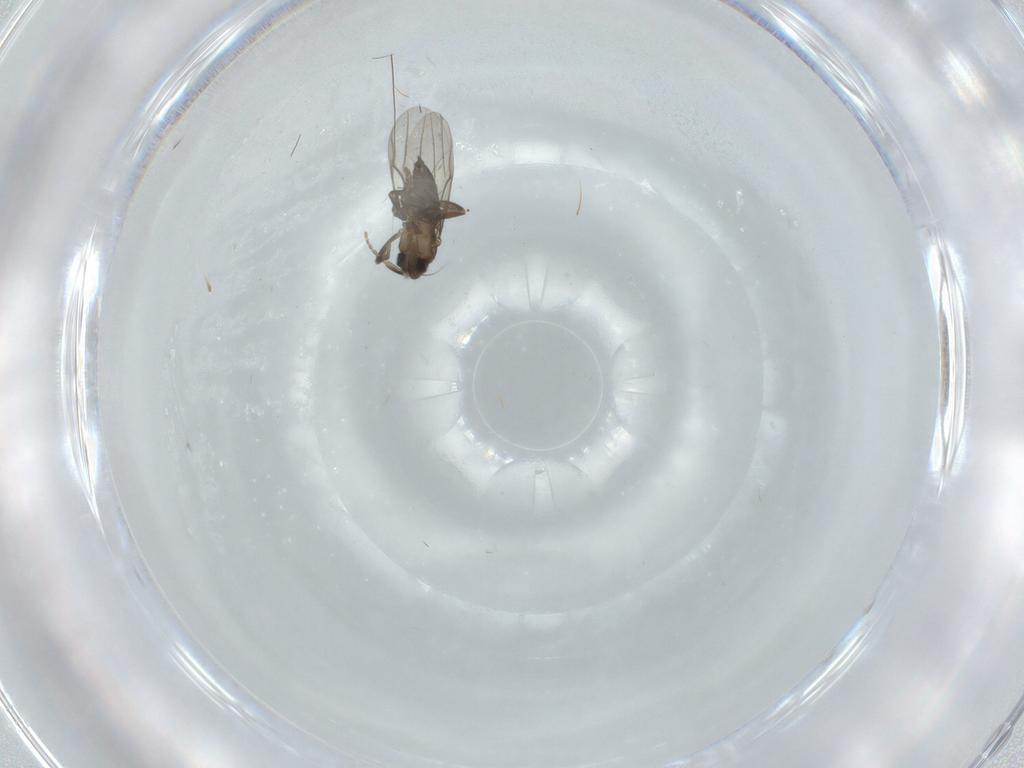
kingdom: Animalia
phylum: Arthropoda
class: Insecta
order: Diptera
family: Phoridae
